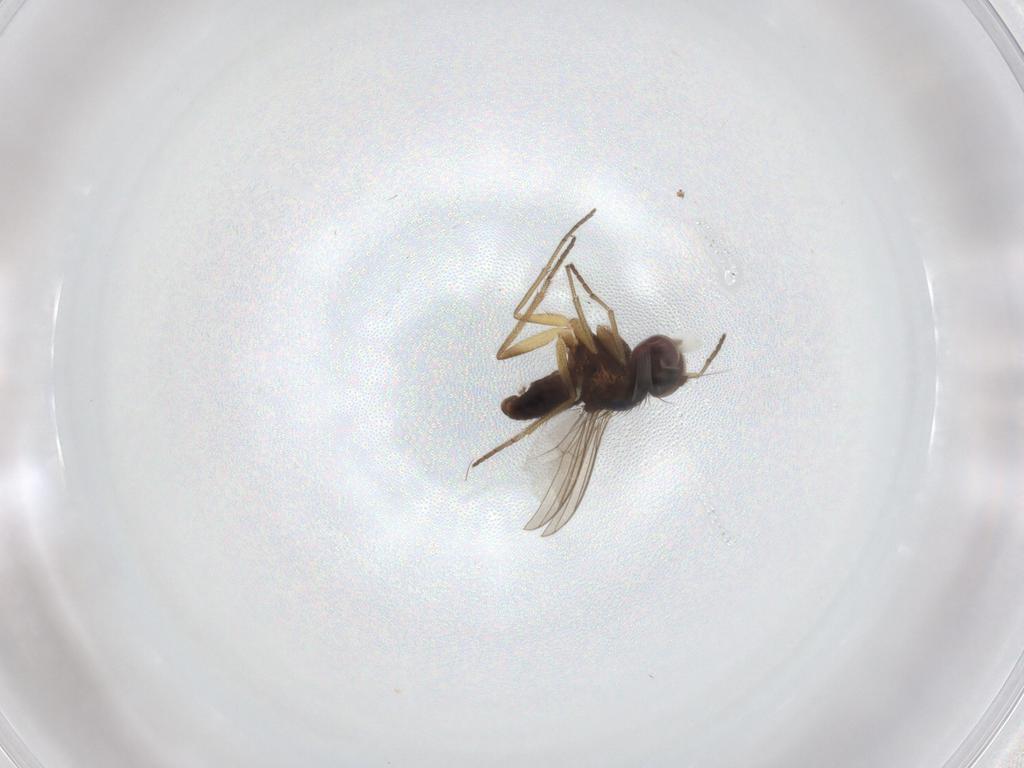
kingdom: Animalia
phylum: Arthropoda
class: Insecta
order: Diptera
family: Dolichopodidae
